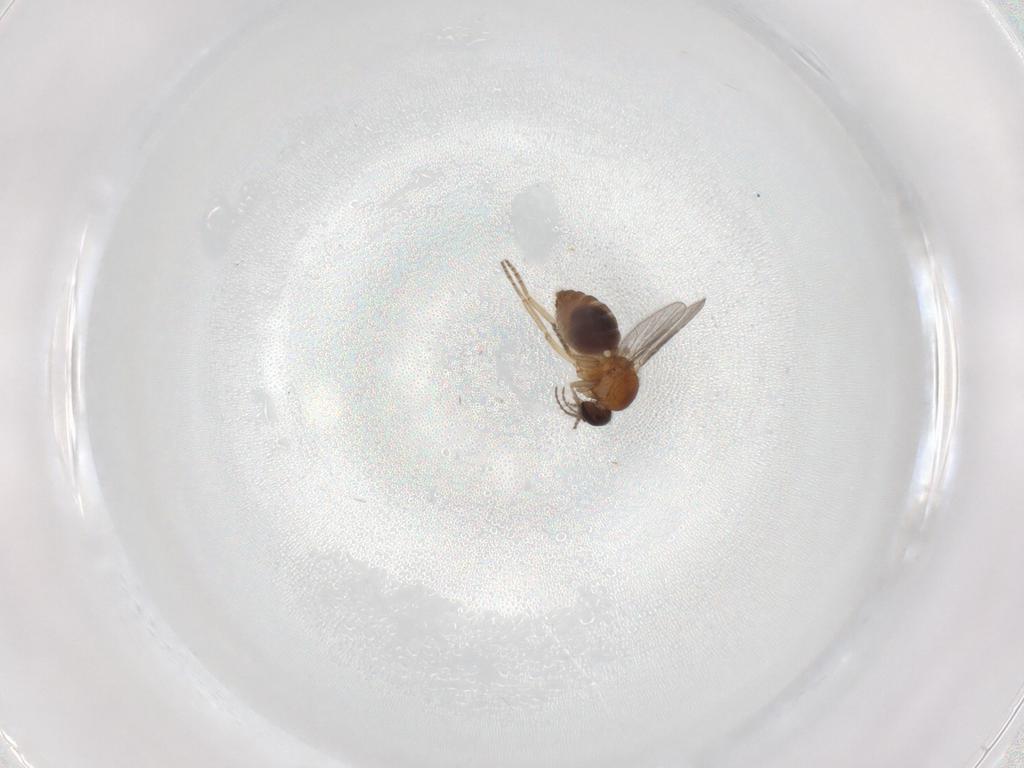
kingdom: Animalia
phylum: Arthropoda
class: Insecta
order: Diptera
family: Ceratopogonidae
